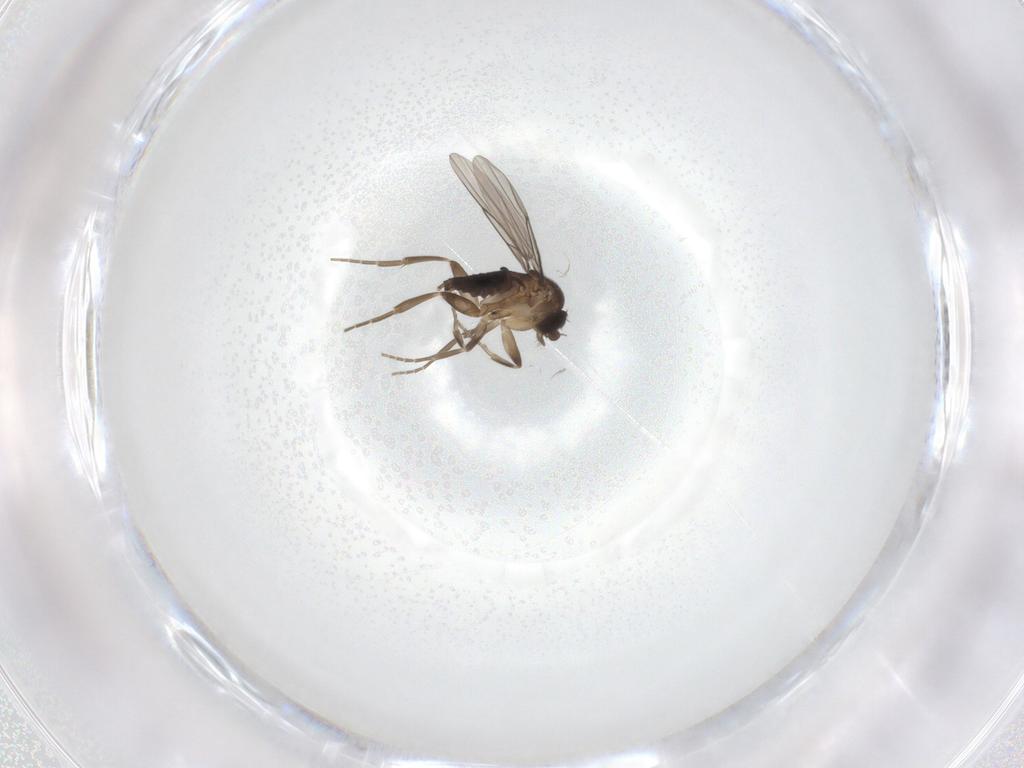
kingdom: Animalia
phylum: Arthropoda
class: Insecta
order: Diptera
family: Phoridae
